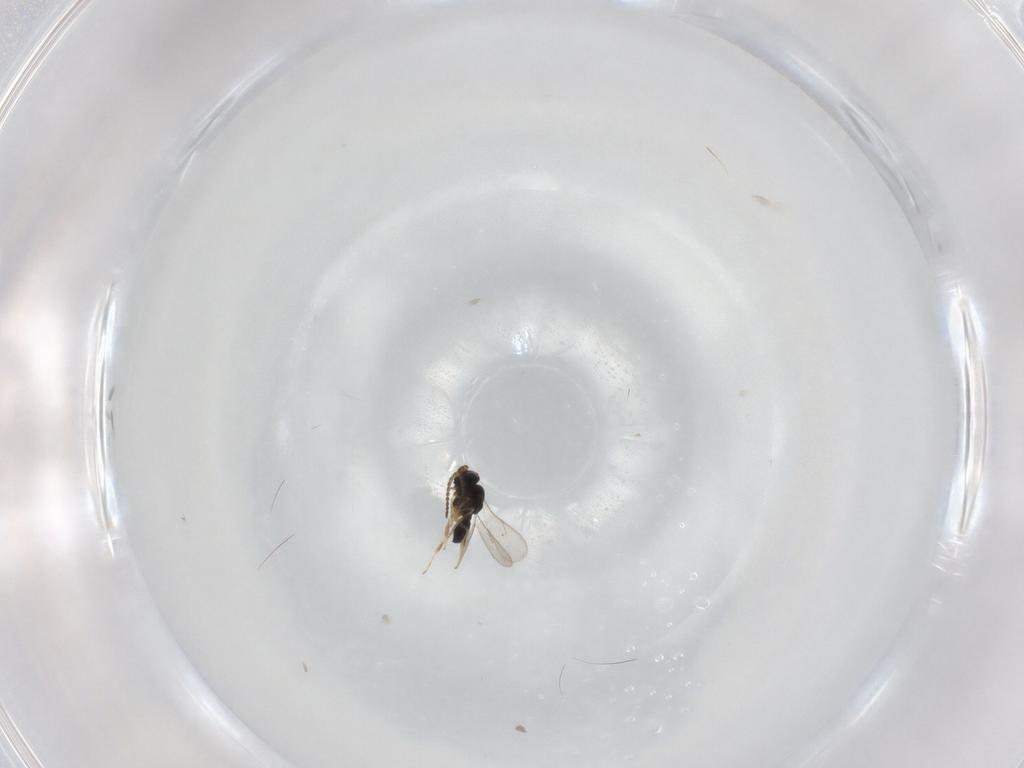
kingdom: Animalia
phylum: Arthropoda
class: Insecta
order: Hymenoptera
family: Scelionidae
